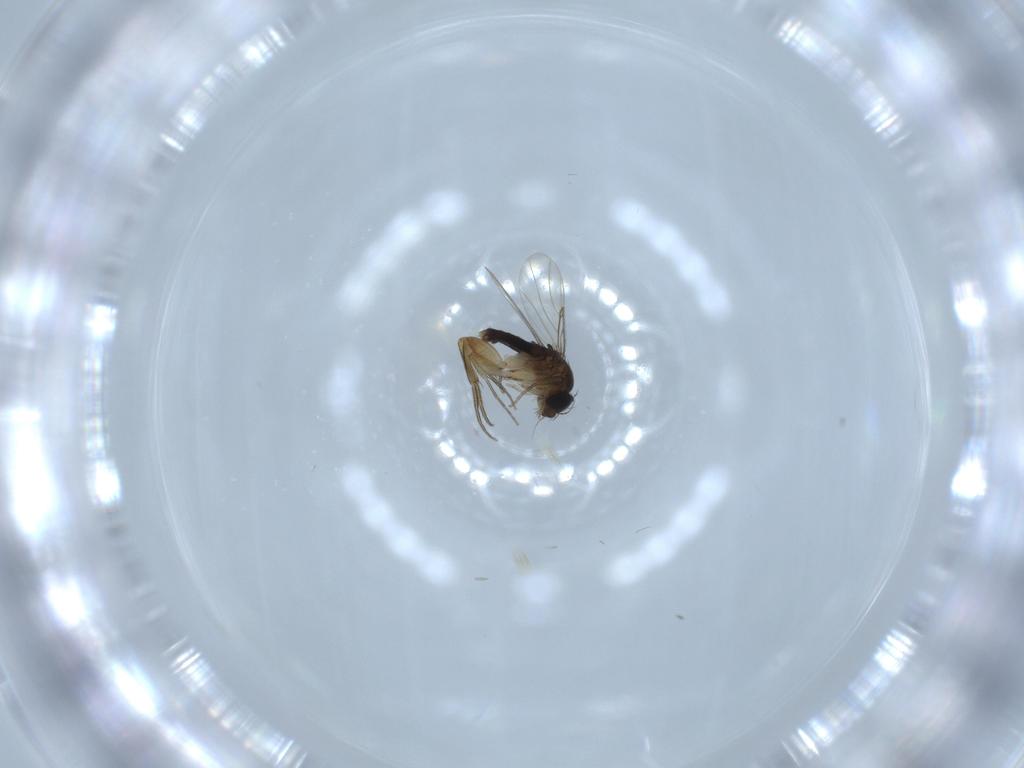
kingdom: Animalia
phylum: Arthropoda
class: Insecta
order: Diptera
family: Phoridae
